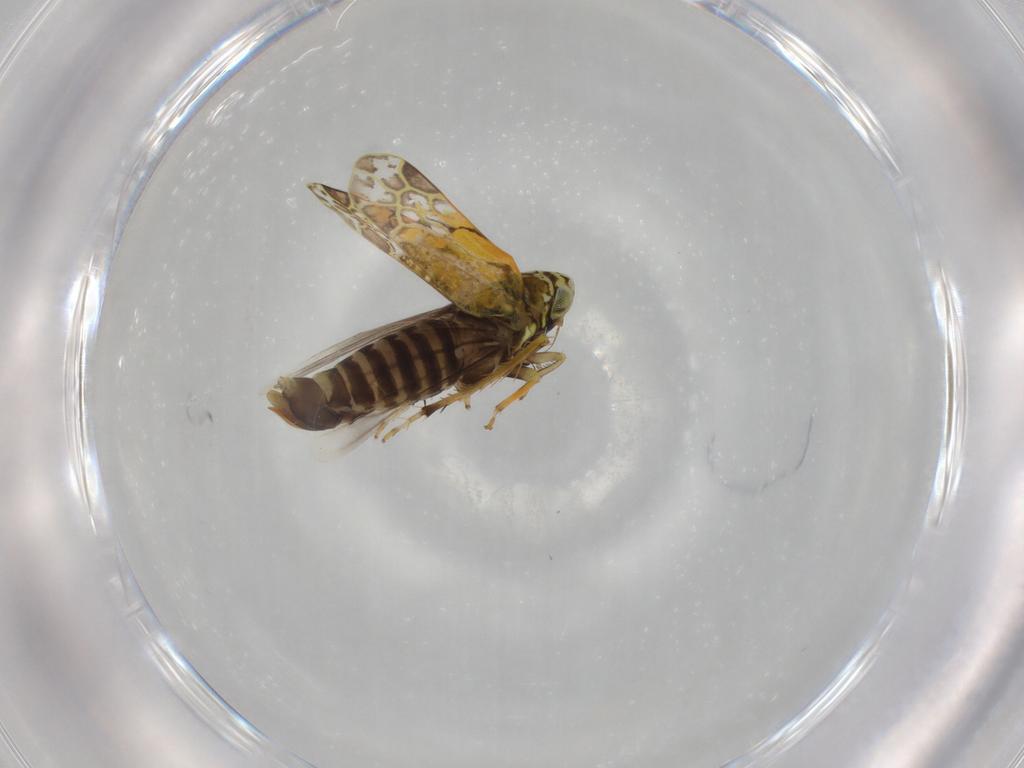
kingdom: Animalia
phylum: Arthropoda
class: Insecta
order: Hemiptera
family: Cicadellidae
